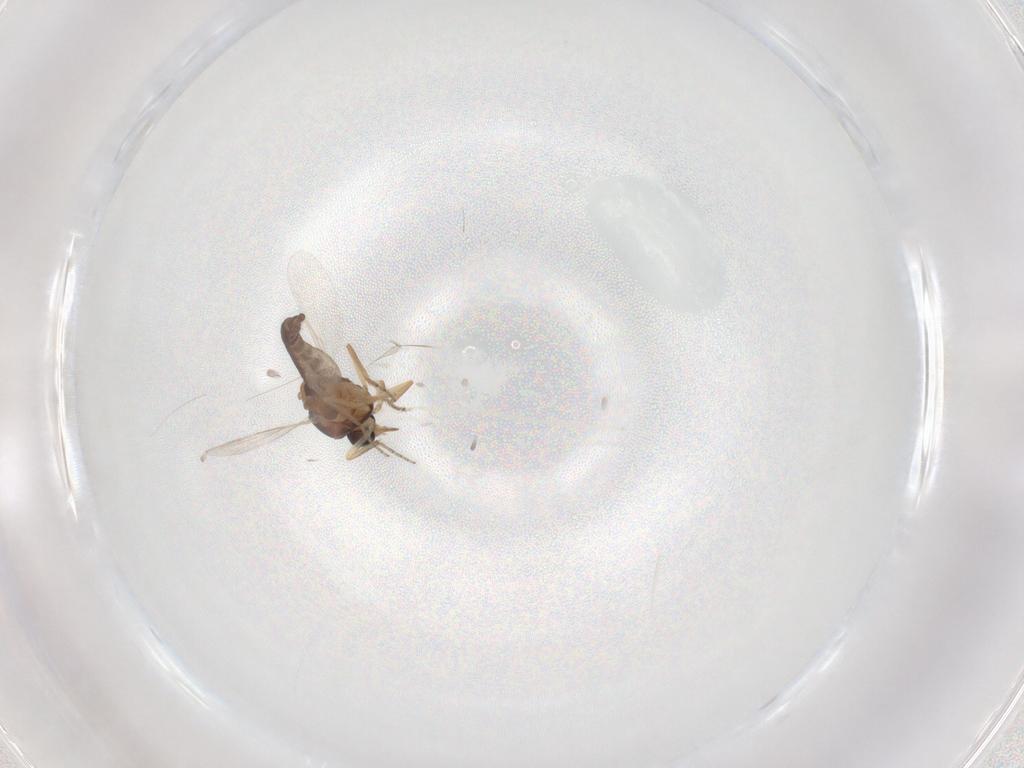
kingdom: Animalia
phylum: Arthropoda
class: Insecta
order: Diptera
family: Ceratopogonidae
